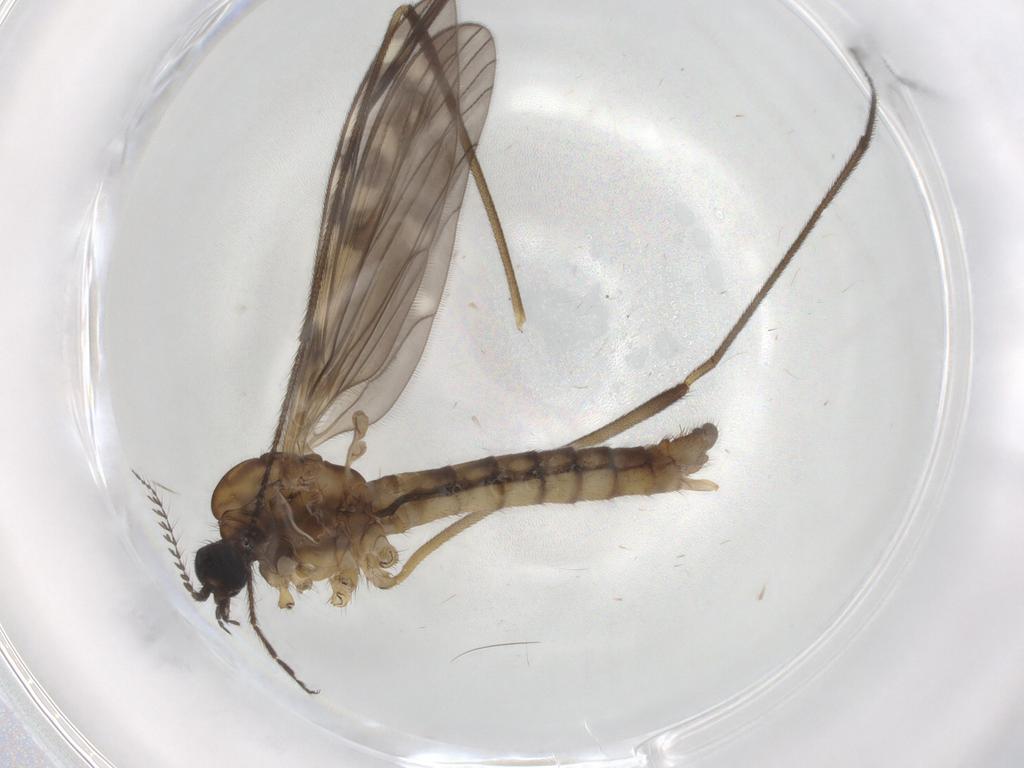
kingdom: Animalia
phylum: Arthropoda
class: Insecta
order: Diptera
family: Limoniidae
